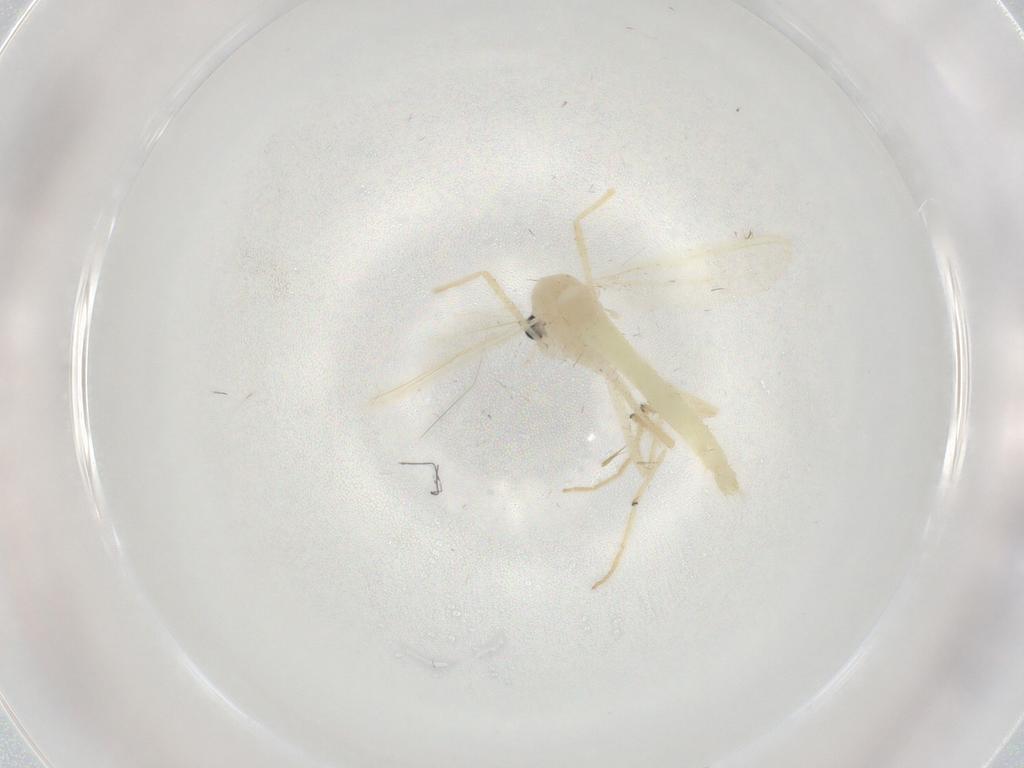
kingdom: Animalia
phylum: Arthropoda
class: Insecta
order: Diptera
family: Chironomidae
